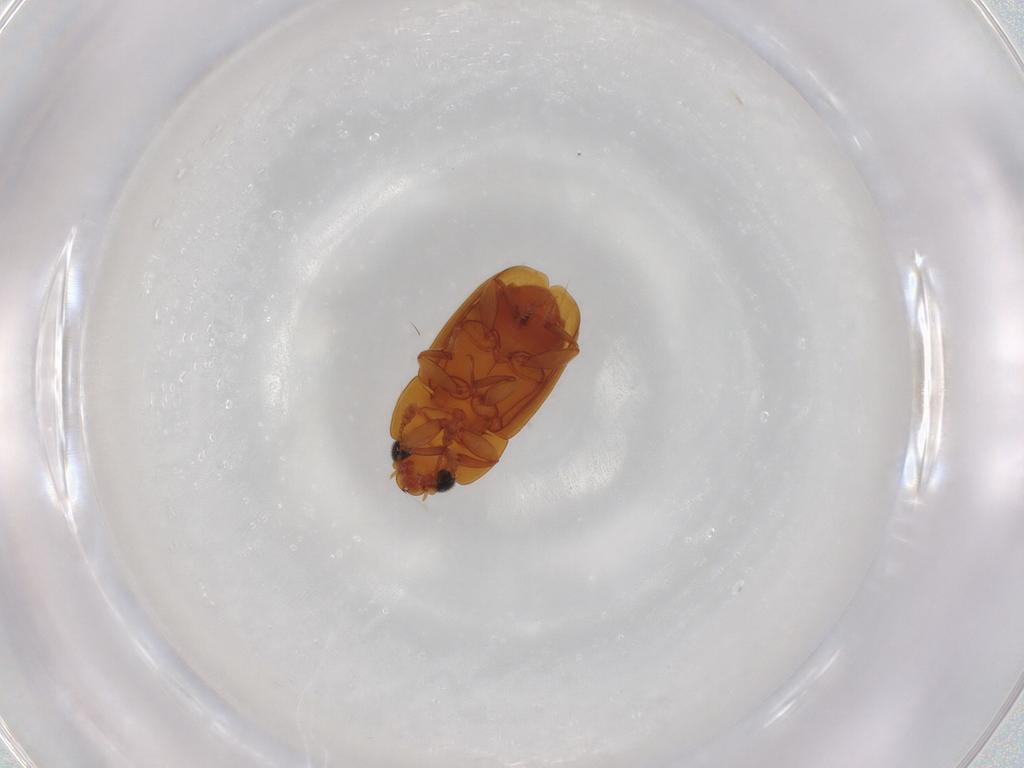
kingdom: Animalia
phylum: Arthropoda
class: Insecta
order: Coleoptera
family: Nitidulidae
